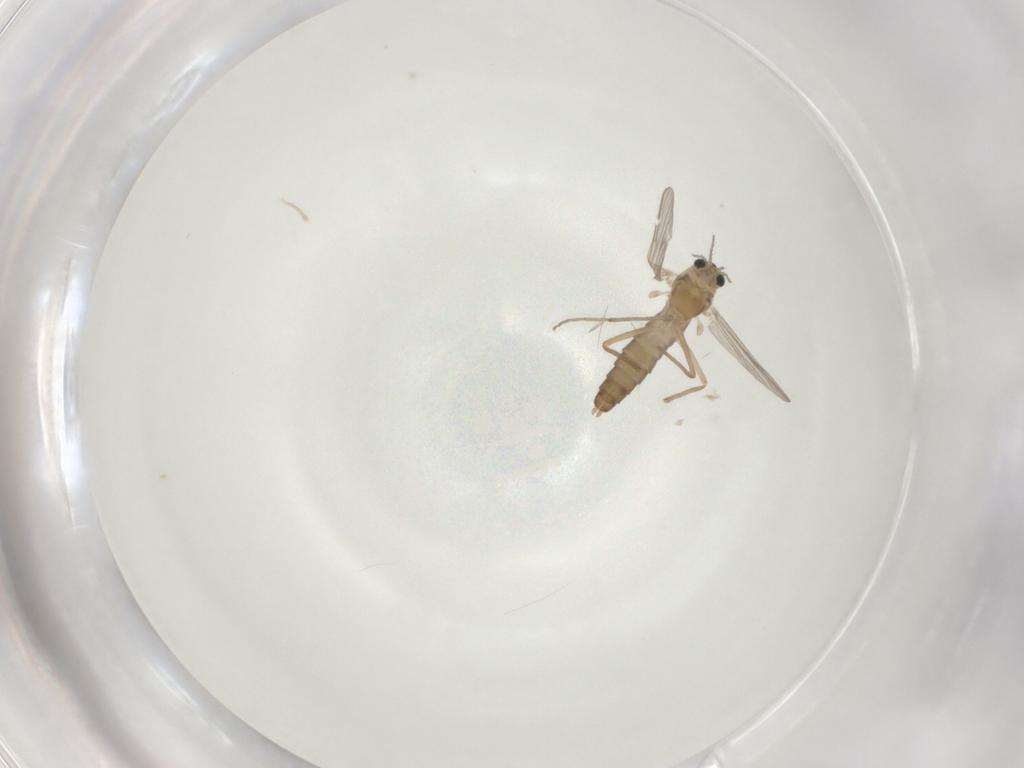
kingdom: Animalia
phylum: Arthropoda
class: Insecta
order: Diptera
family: Chironomidae
